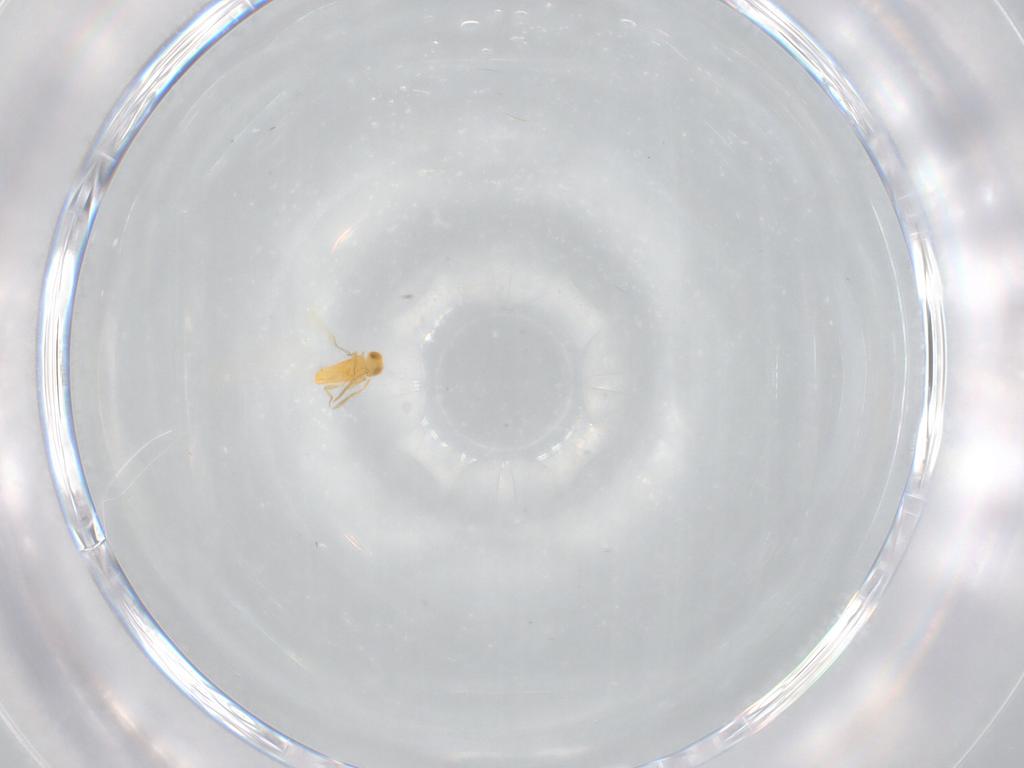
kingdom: Animalia
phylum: Arthropoda
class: Insecta
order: Hymenoptera
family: Aphelinidae
